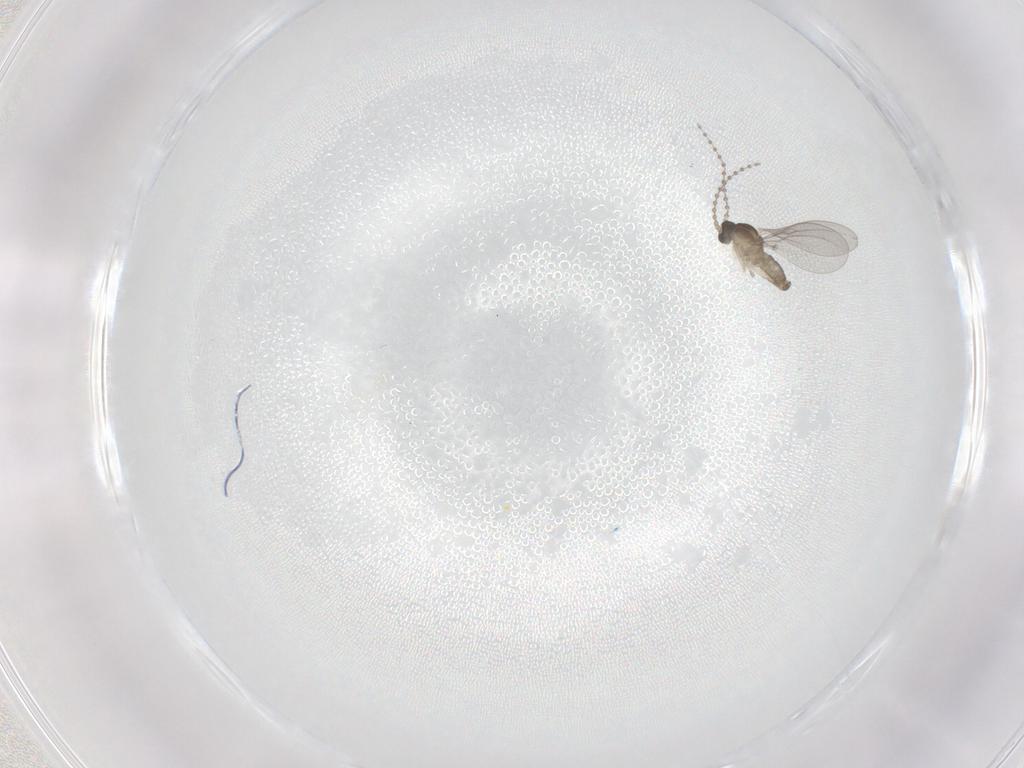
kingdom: Animalia
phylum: Arthropoda
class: Insecta
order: Diptera
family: Cecidomyiidae
